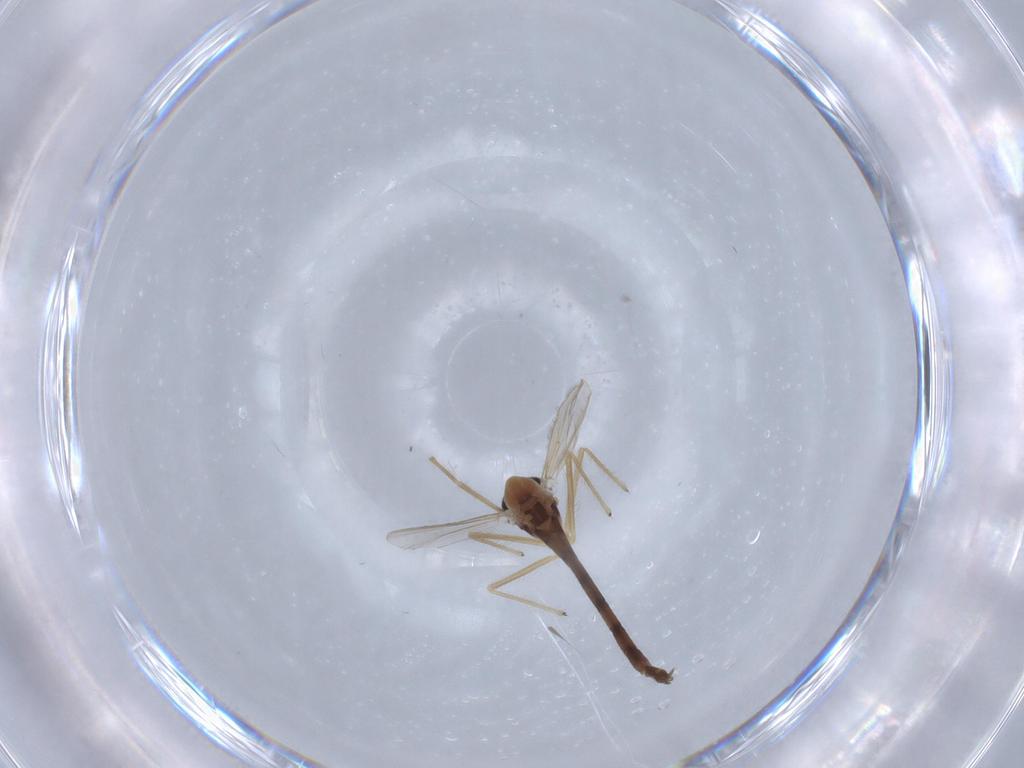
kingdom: Animalia
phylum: Arthropoda
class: Insecta
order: Diptera
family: Chironomidae
